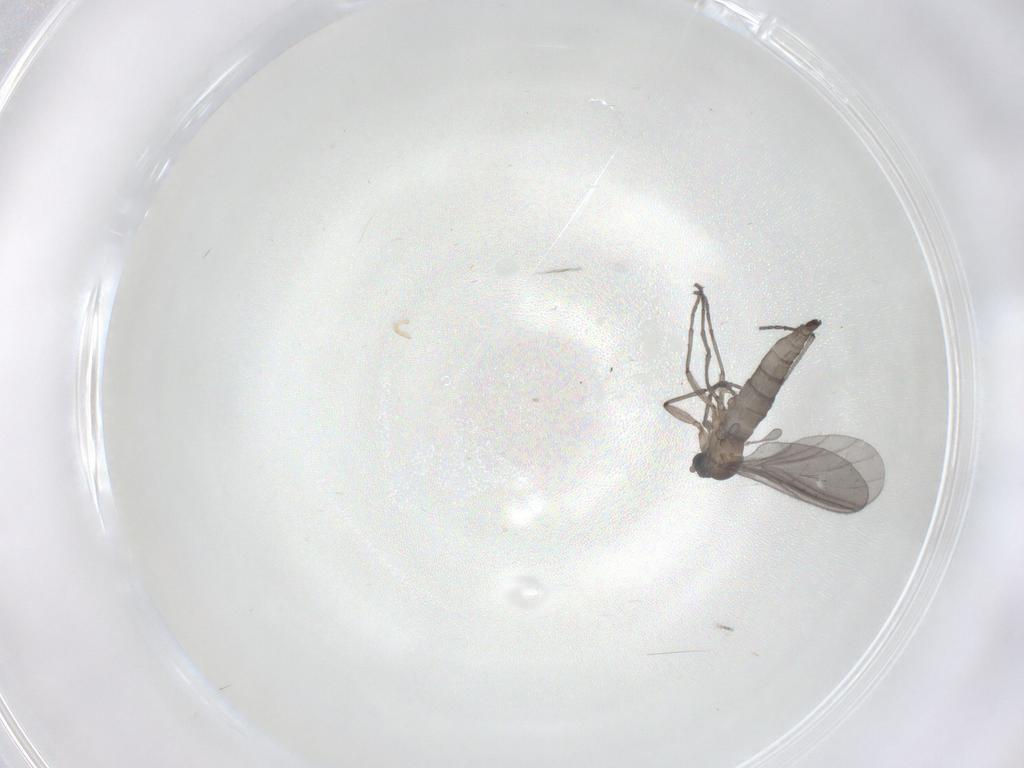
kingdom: Animalia
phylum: Arthropoda
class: Insecta
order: Diptera
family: Sciaridae
